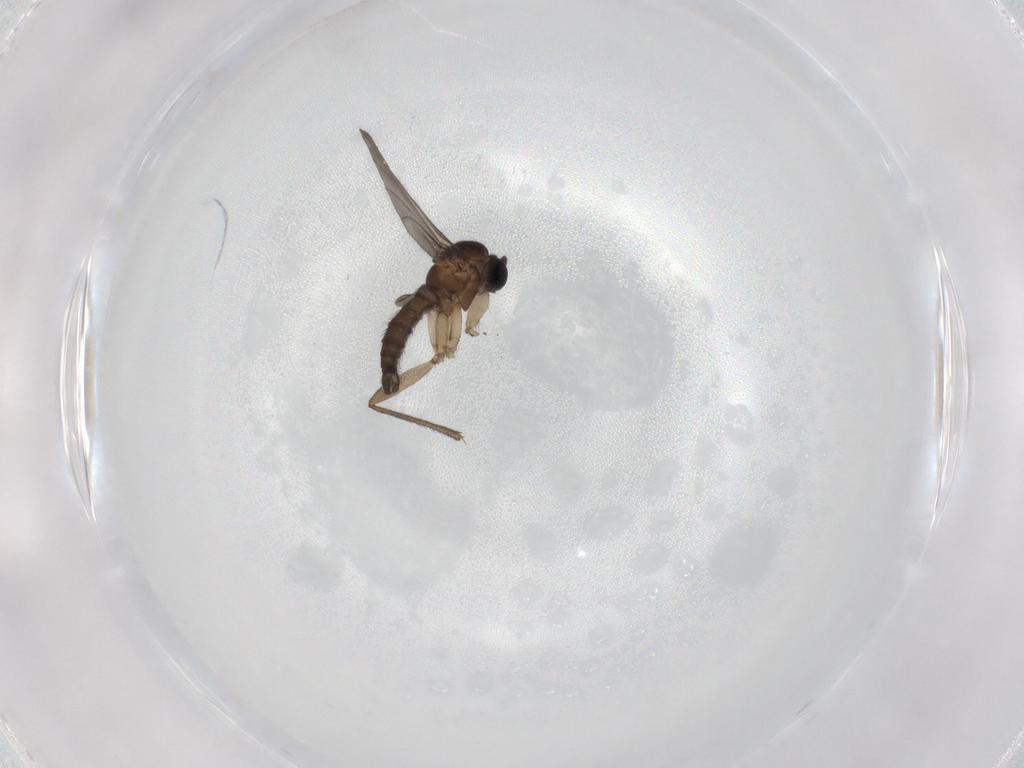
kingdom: Animalia
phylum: Arthropoda
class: Insecta
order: Diptera
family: Sciaridae
